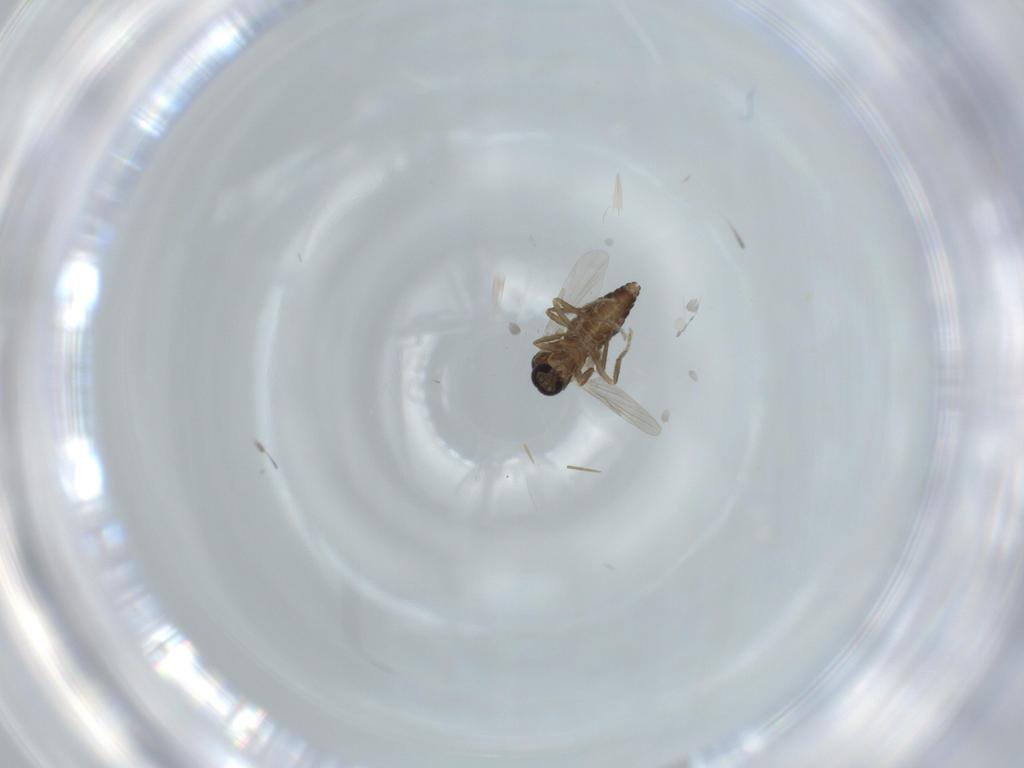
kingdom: Animalia
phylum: Arthropoda
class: Insecta
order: Diptera
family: Ceratopogonidae
